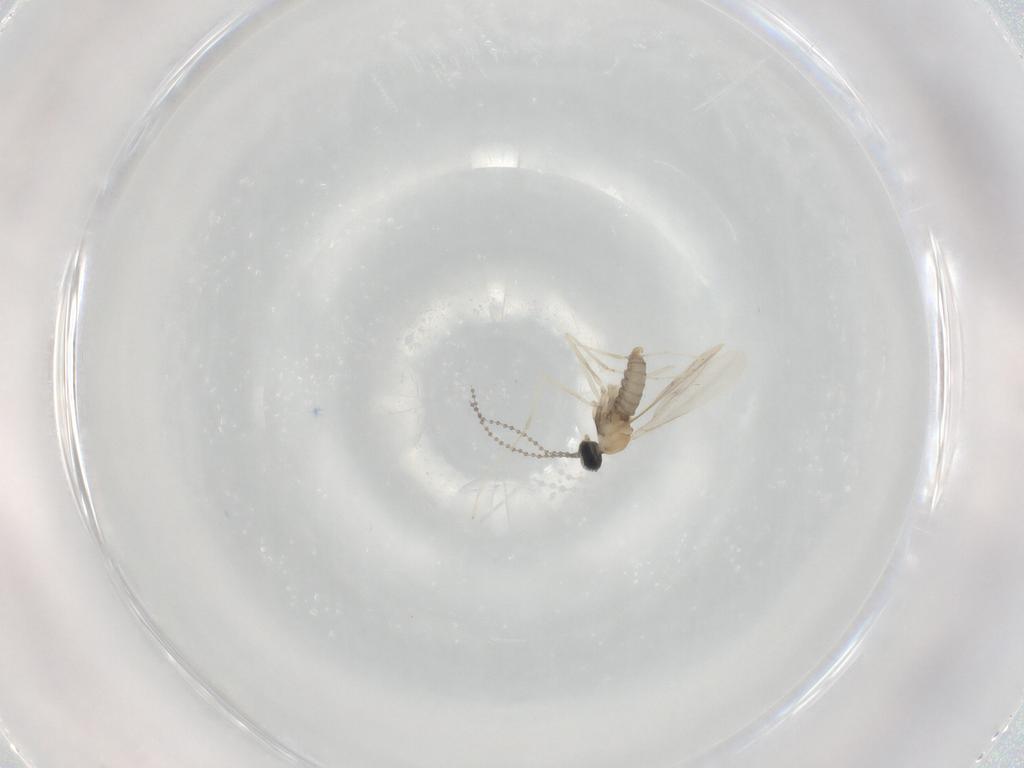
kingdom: Animalia
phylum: Arthropoda
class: Insecta
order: Diptera
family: Cecidomyiidae
